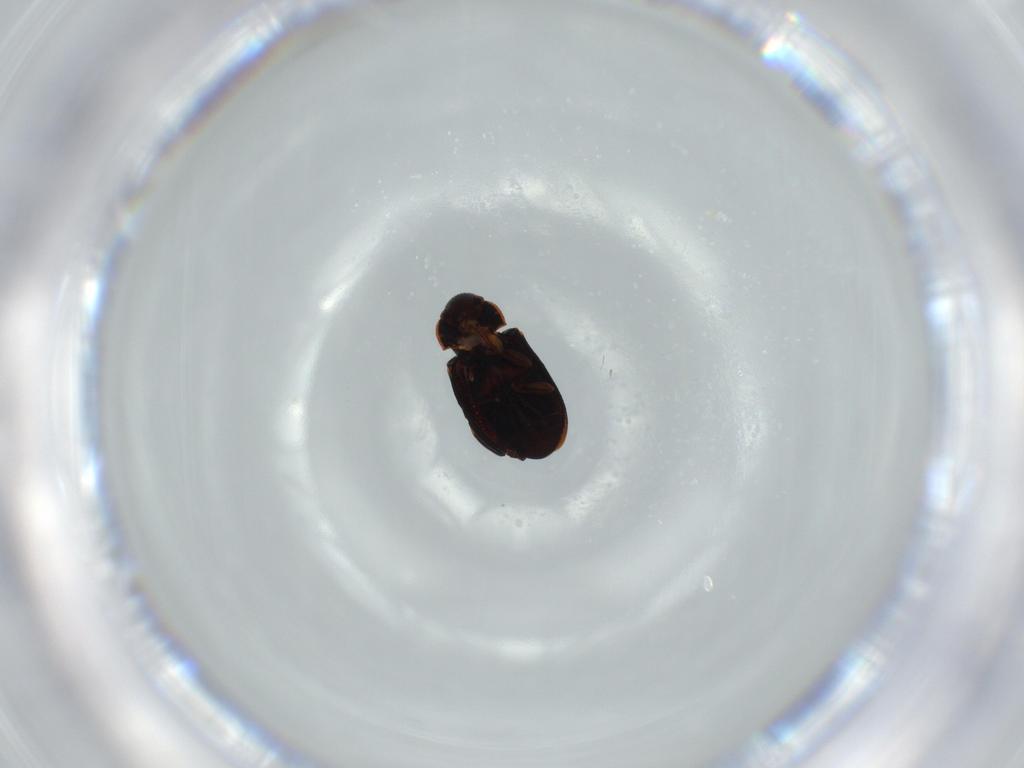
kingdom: Animalia
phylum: Arthropoda
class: Insecta
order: Coleoptera
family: Ptinidae
